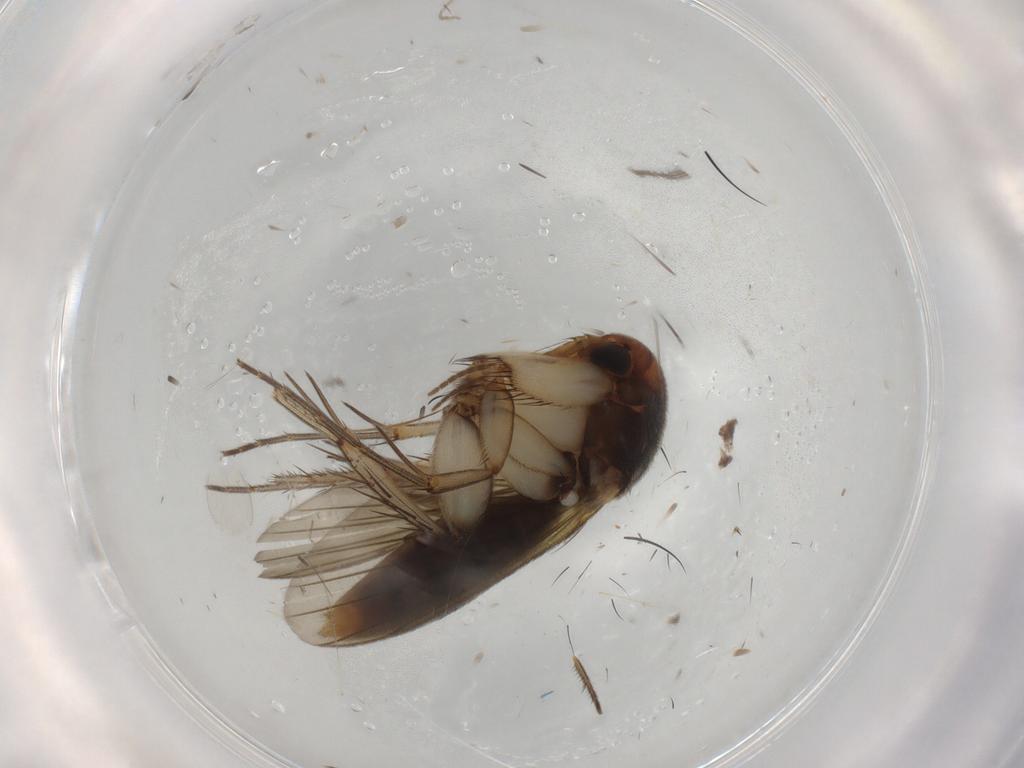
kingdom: Animalia
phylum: Arthropoda
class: Insecta
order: Diptera
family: Mycetophilidae
